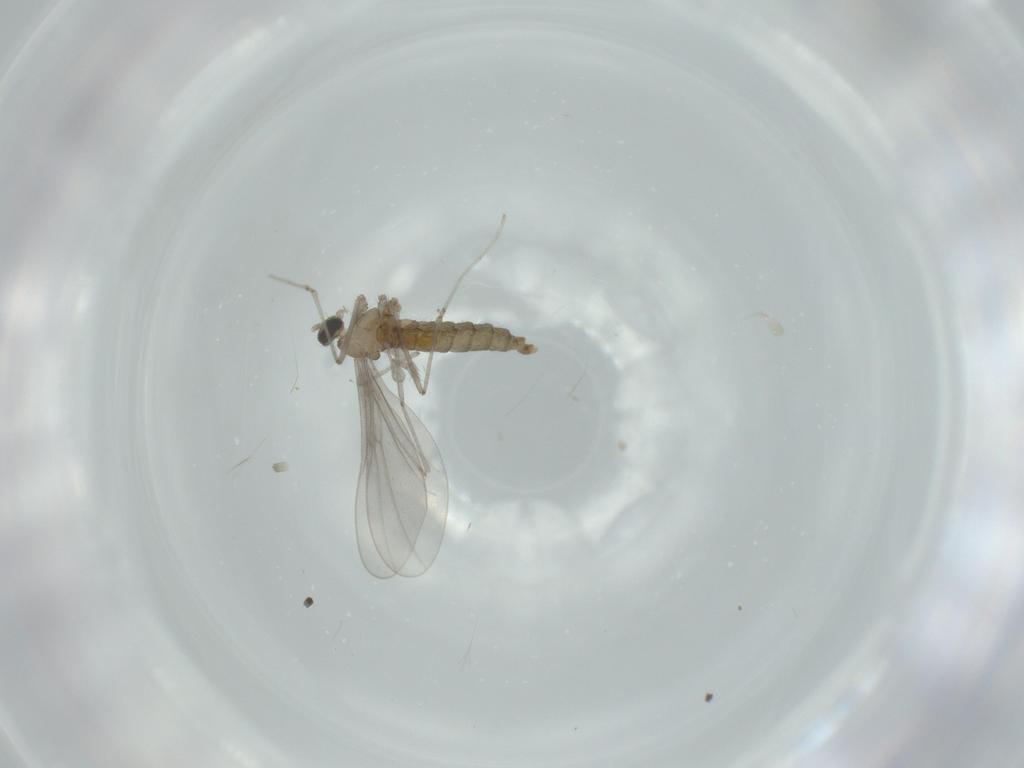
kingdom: Animalia
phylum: Arthropoda
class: Insecta
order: Diptera
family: Cecidomyiidae
